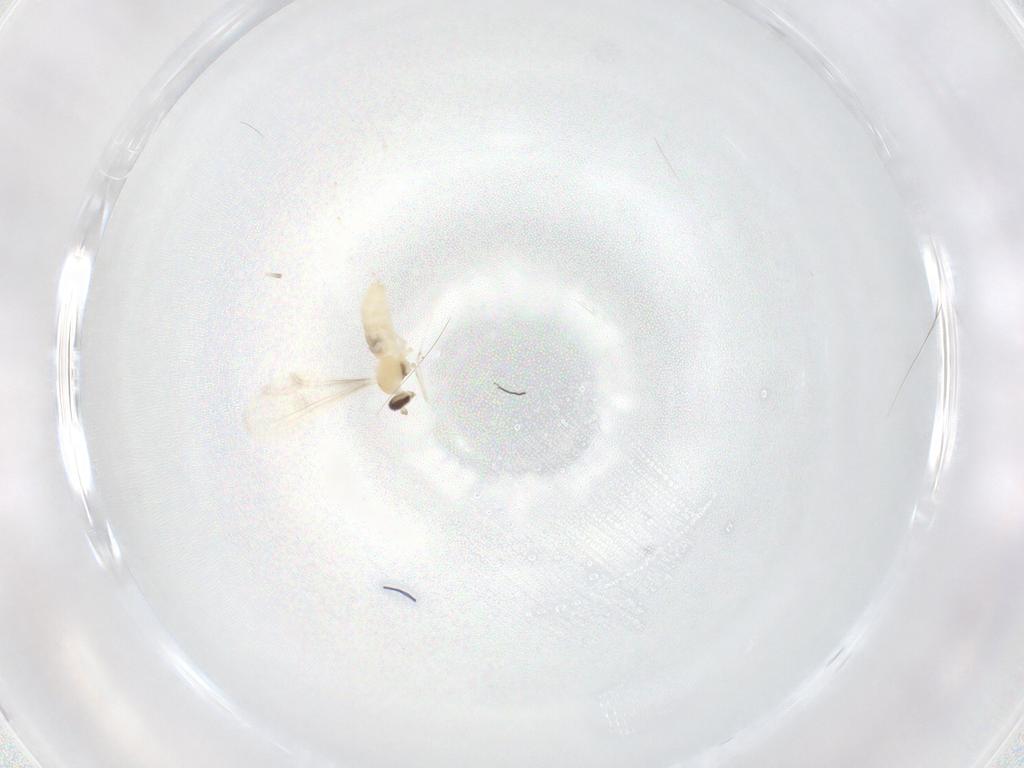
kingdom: Animalia
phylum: Arthropoda
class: Insecta
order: Diptera
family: Cecidomyiidae
